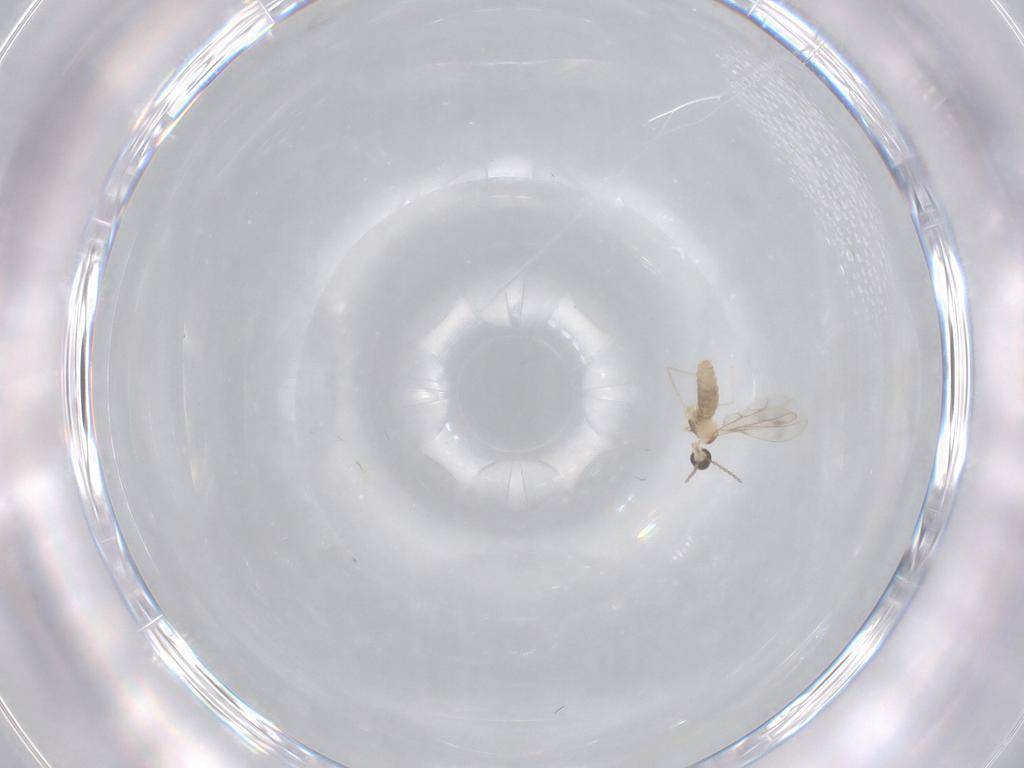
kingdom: Animalia
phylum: Arthropoda
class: Insecta
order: Diptera
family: Cecidomyiidae
